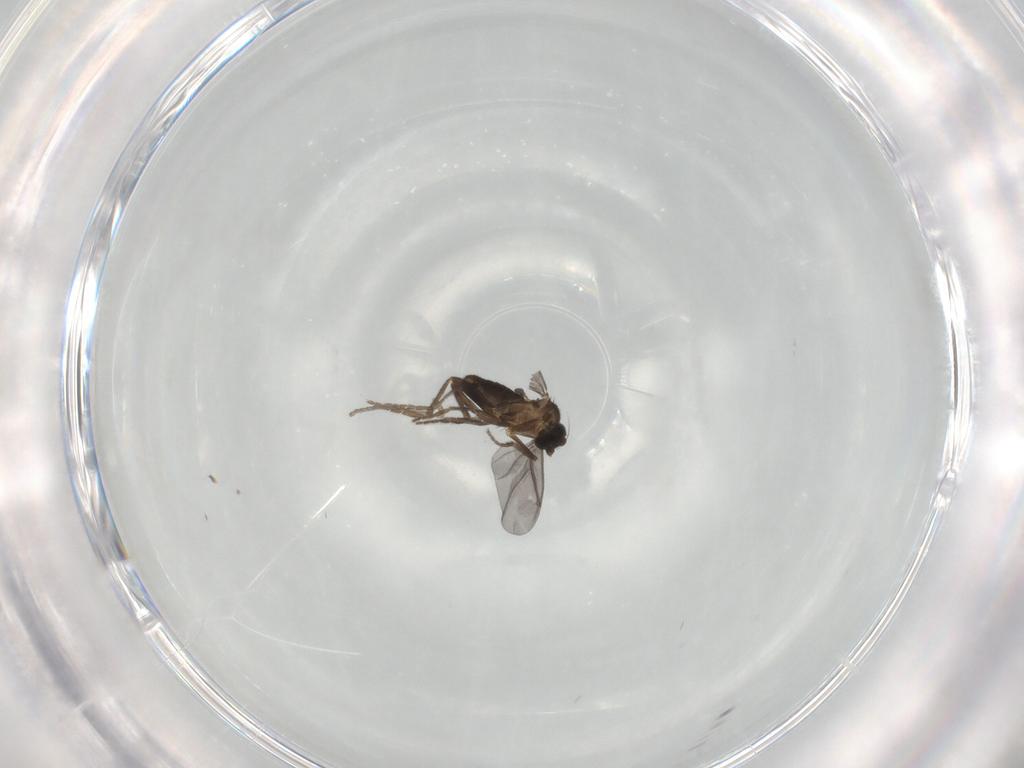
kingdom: Animalia
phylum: Arthropoda
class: Insecta
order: Diptera
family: Phoridae
